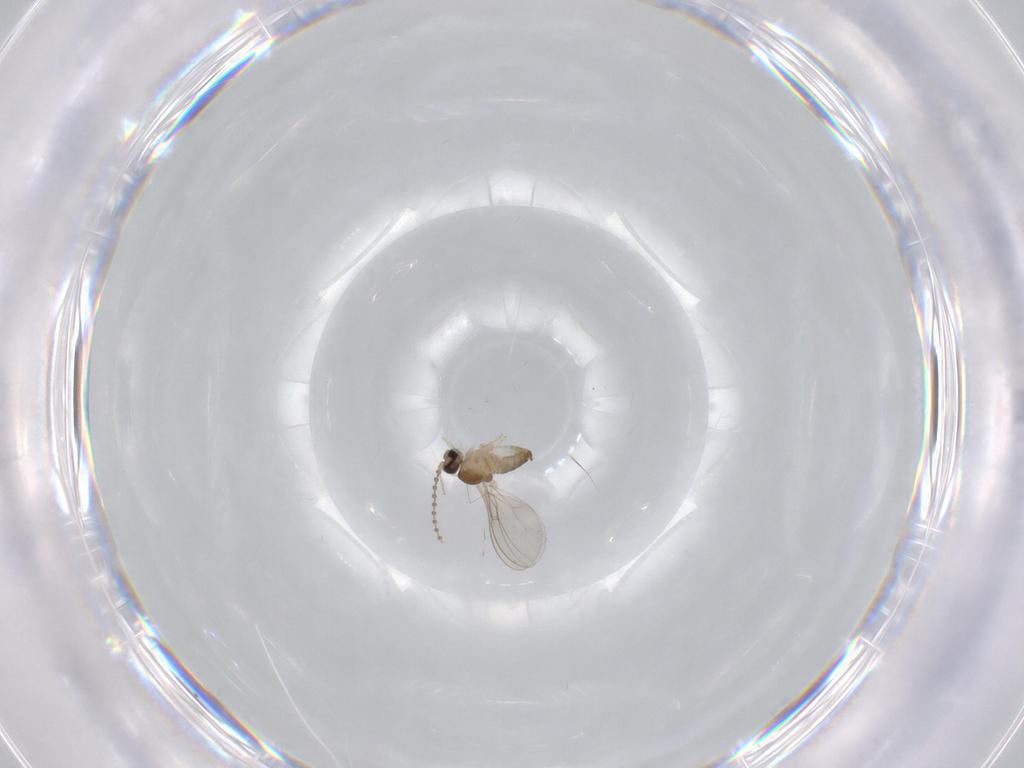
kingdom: Animalia
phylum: Arthropoda
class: Insecta
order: Diptera
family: Cecidomyiidae
